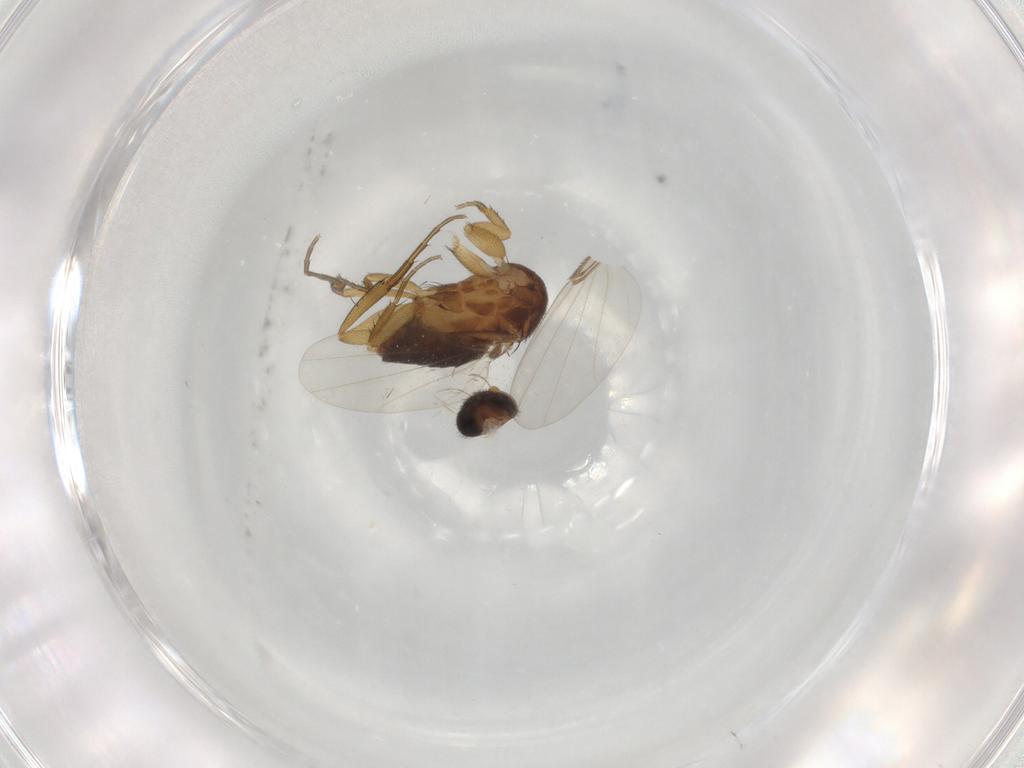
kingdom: Animalia
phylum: Arthropoda
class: Insecta
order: Diptera
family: Phoridae
